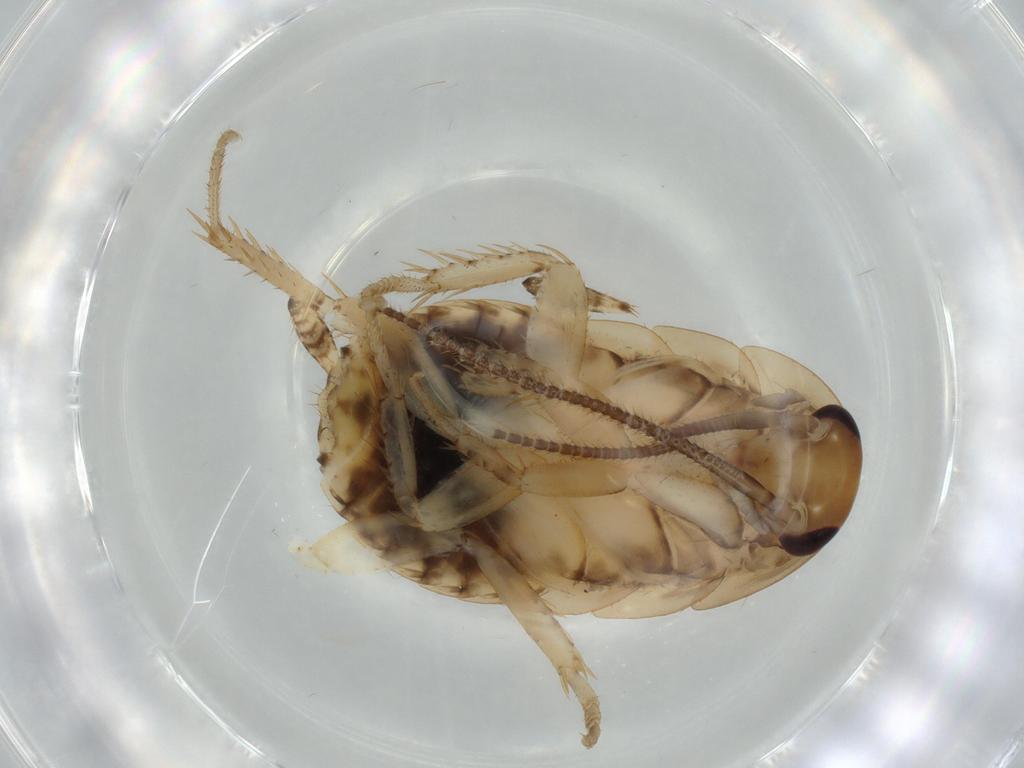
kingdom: Animalia
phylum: Arthropoda
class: Insecta
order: Blattodea
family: Ectobiidae
